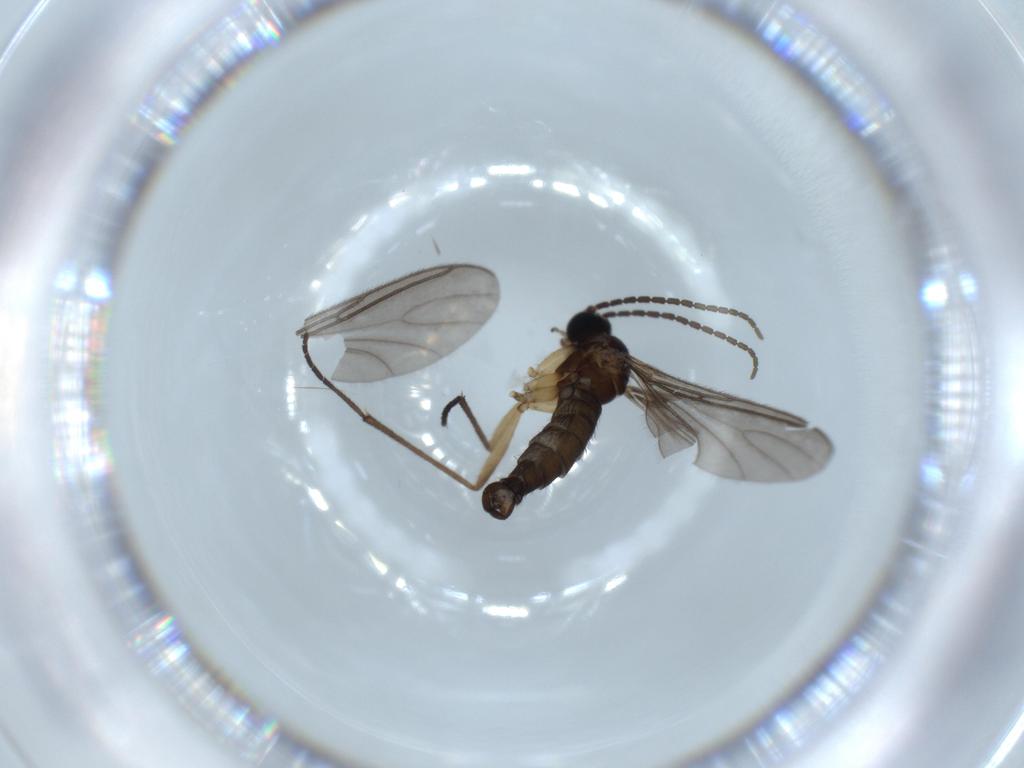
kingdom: Animalia
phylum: Arthropoda
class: Insecta
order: Diptera
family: Sciaridae
